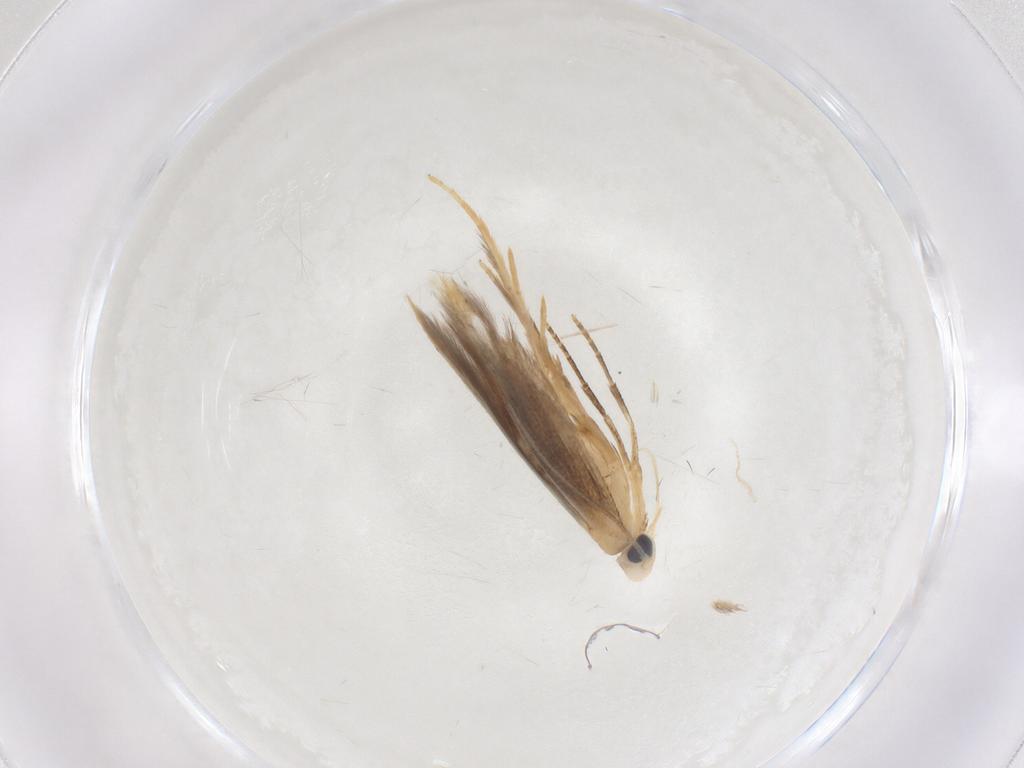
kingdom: Animalia
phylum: Arthropoda
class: Insecta
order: Lepidoptera
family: Tischeriidae
